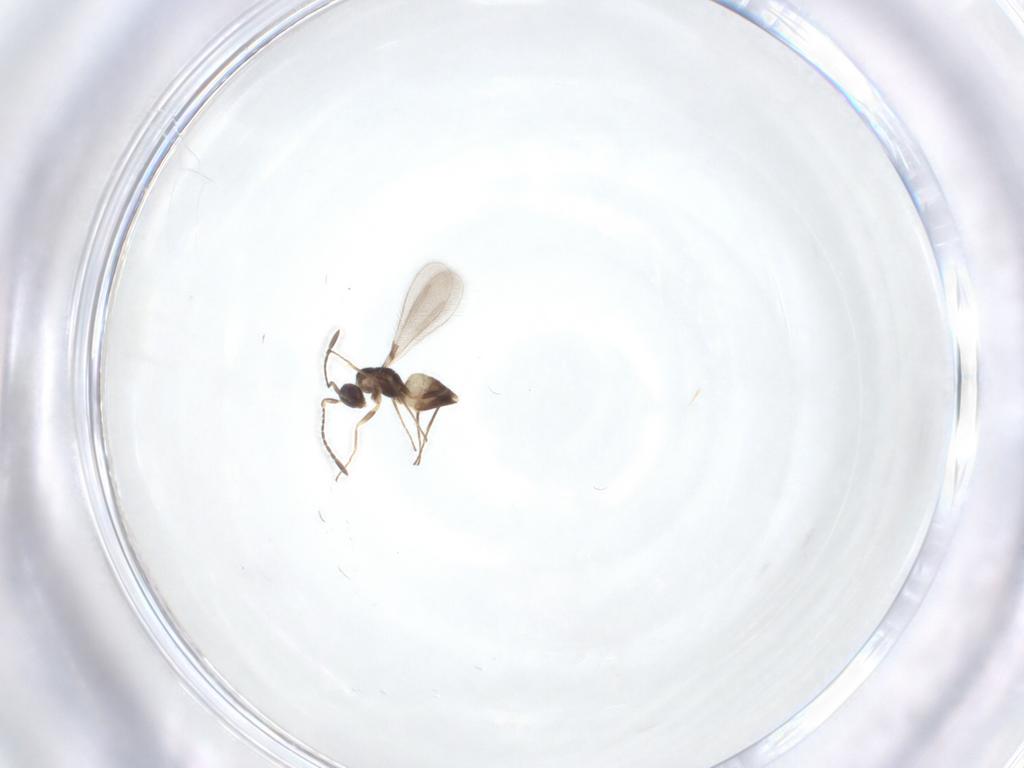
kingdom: Animalia
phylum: Arthropoda
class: Insecta
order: Hymenoptera
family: Mymaridae
